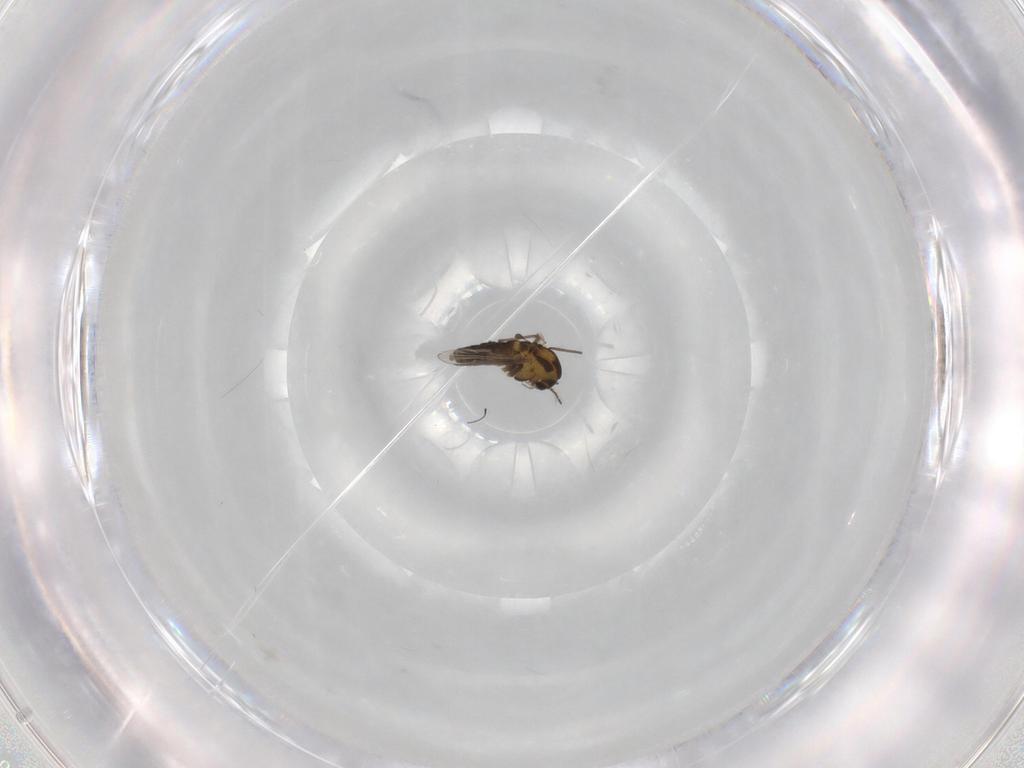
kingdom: Animalia
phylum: Arthropoda
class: Insecta
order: Diptera
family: Chironomidae
